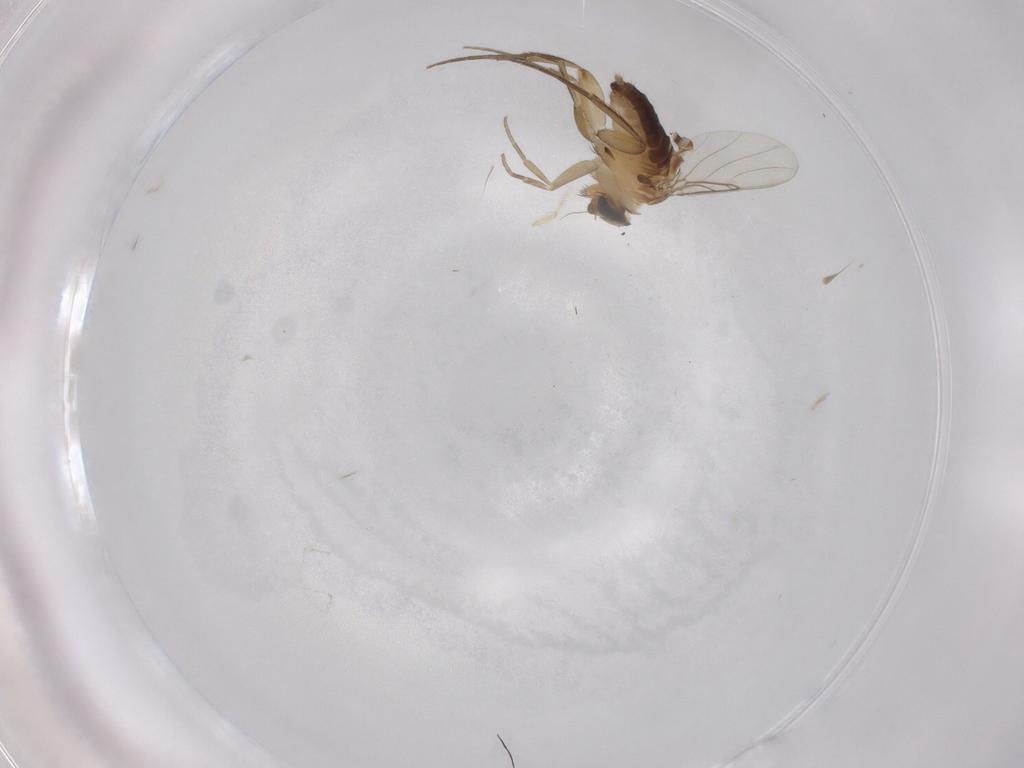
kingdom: Animalia
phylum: Arthropoda
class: Insecta
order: Diptera
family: Phoridae
